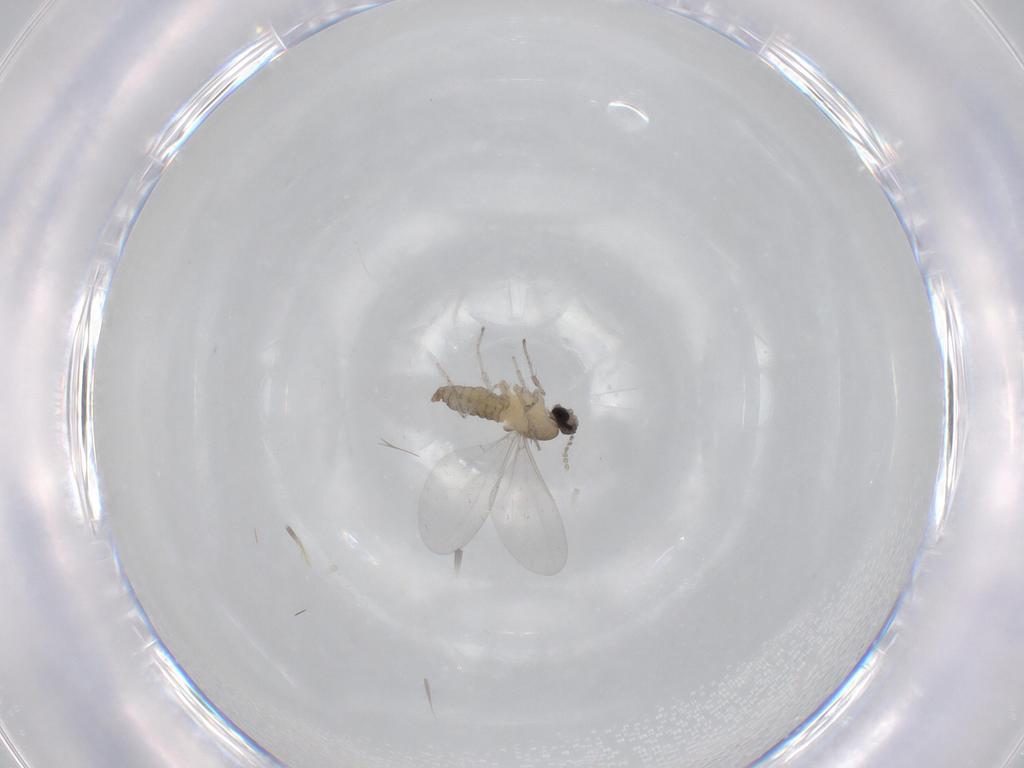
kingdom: Animalia
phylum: Arthropoda
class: Insecta
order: Diptera
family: Cecidomyiidae
